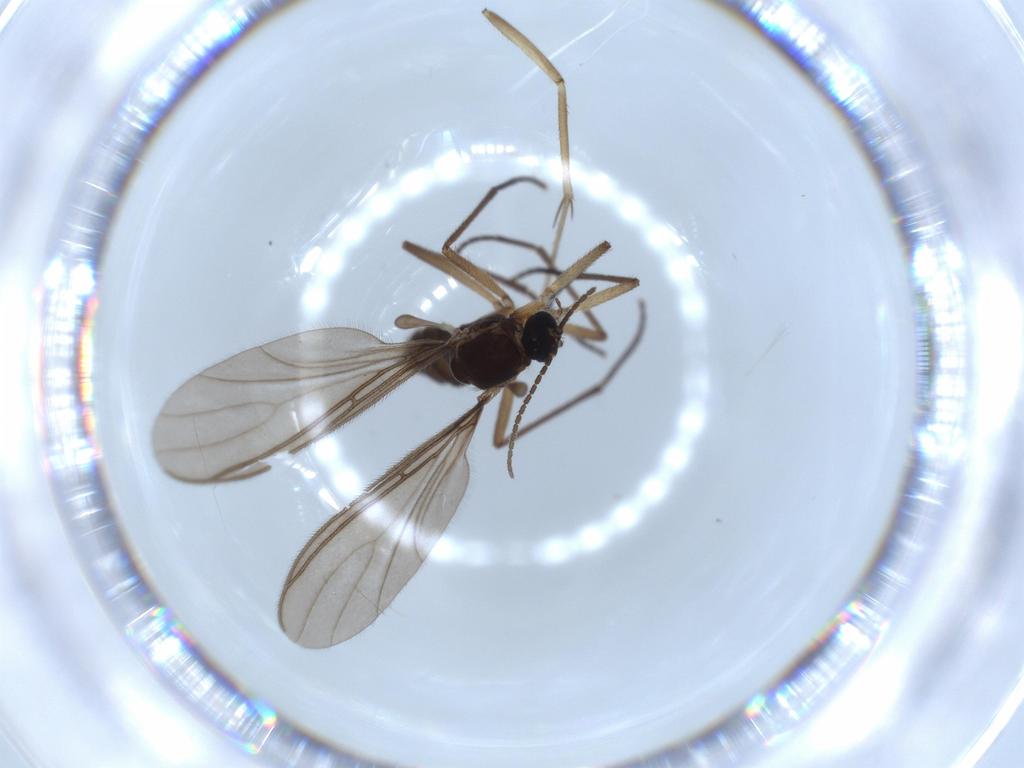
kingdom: Animalia
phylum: Arthropoda
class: Insecta
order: Diptera
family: Mycetophilidae
